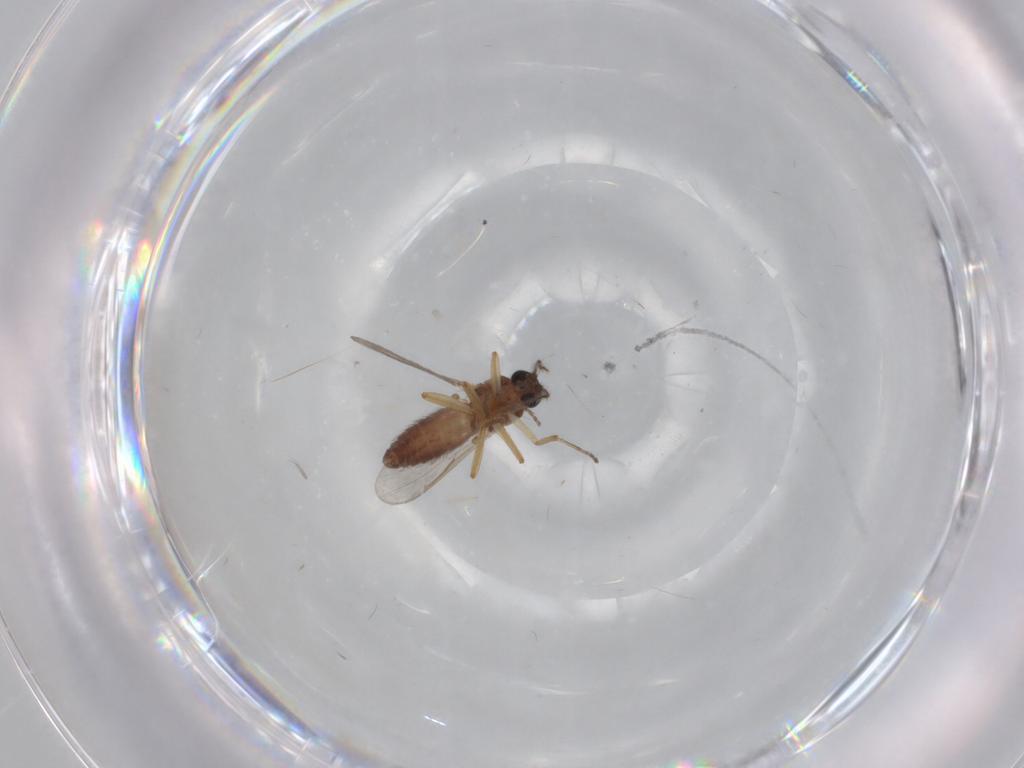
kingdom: Animalia
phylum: Arthropoda
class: Insecta
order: Diptera
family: Ceratopogonidae
